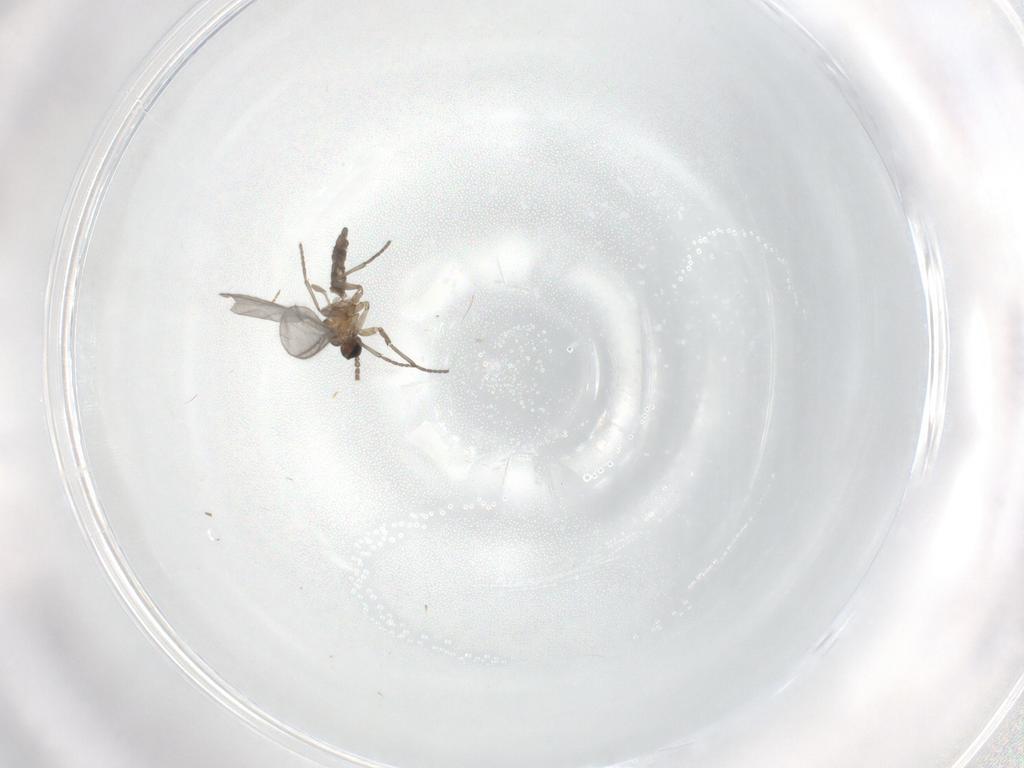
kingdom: Animalia
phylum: Arthropoda
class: Insecta
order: Diptera
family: Sciaridae
